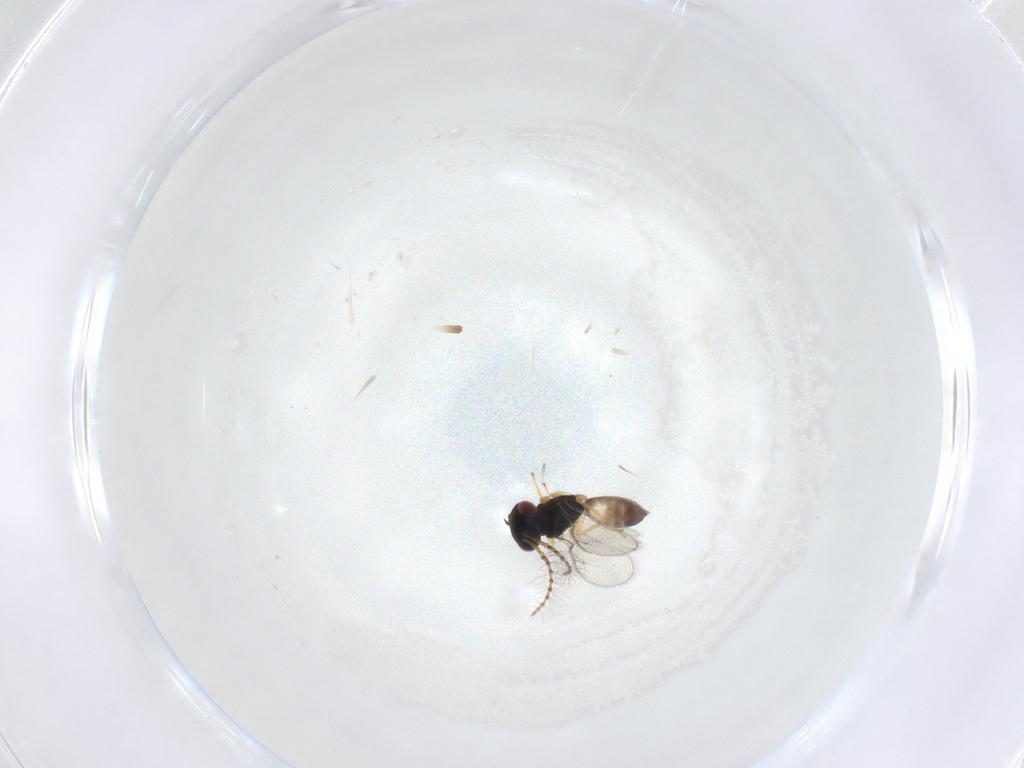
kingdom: Animalia
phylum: Arthropoda
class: Insecta
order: Hymenoptera
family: Pteromalidae
